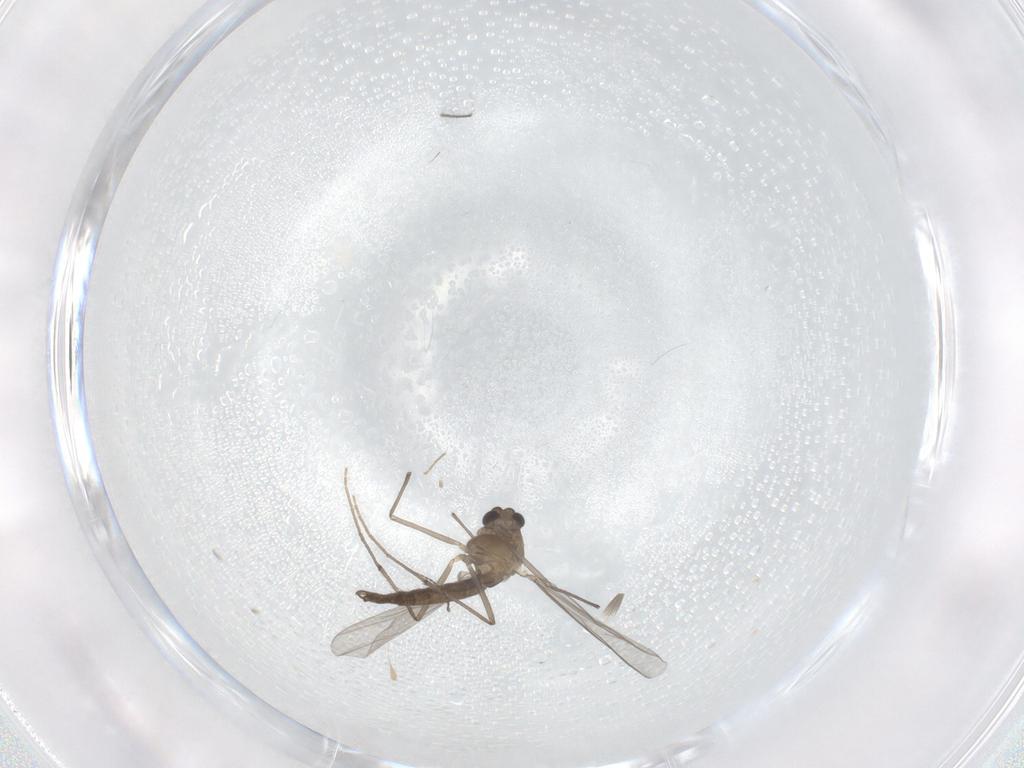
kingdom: Animalia
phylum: Arthropoda
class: Insecta
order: Diptera
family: Chironomidae
